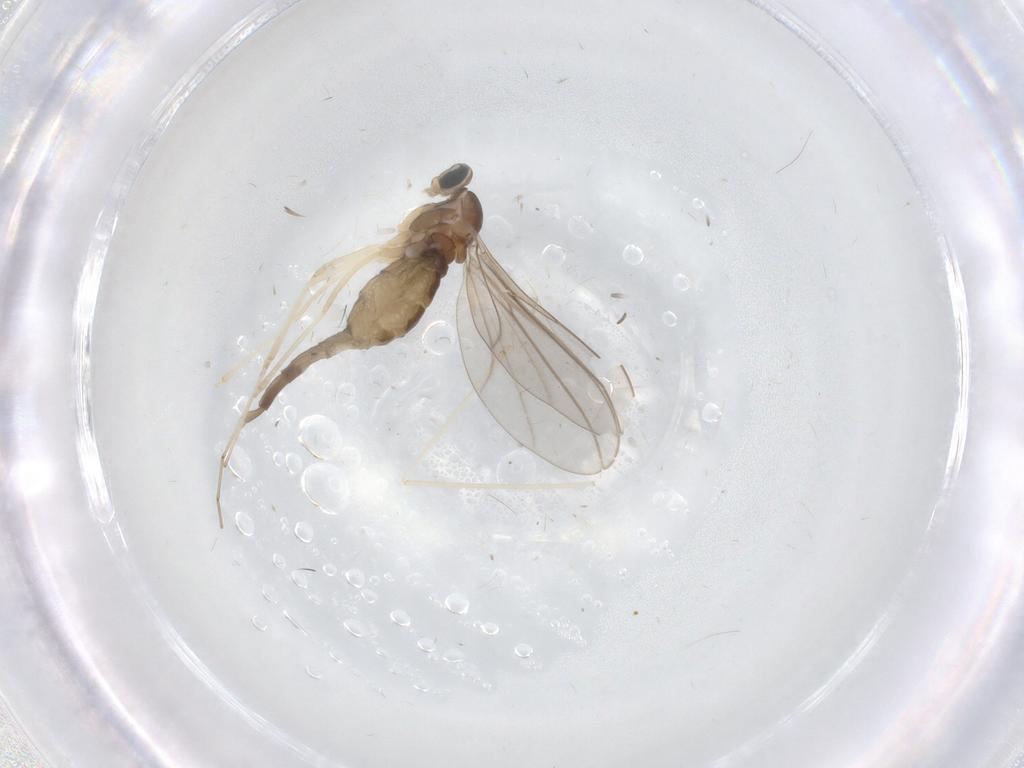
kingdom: Animalia
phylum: Arthropoda
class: Insecta
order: Diptera
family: Cecidomyiidae
